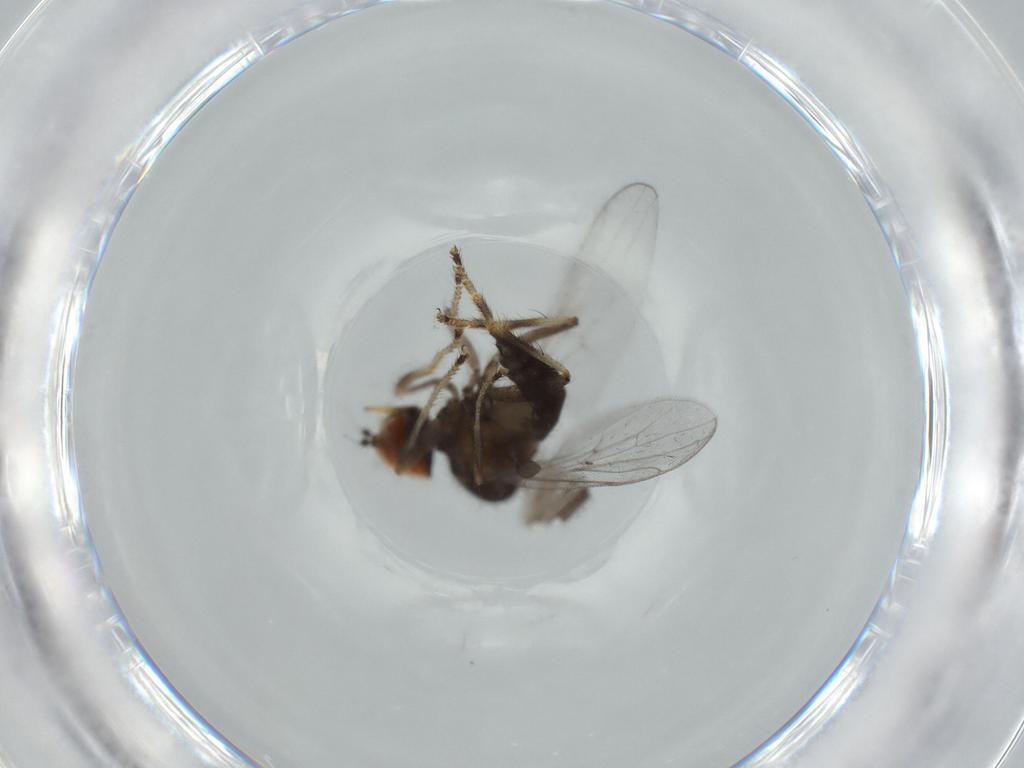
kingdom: Animalia
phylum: Arthropoda
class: Insecta
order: Diptera
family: Hybotidae
